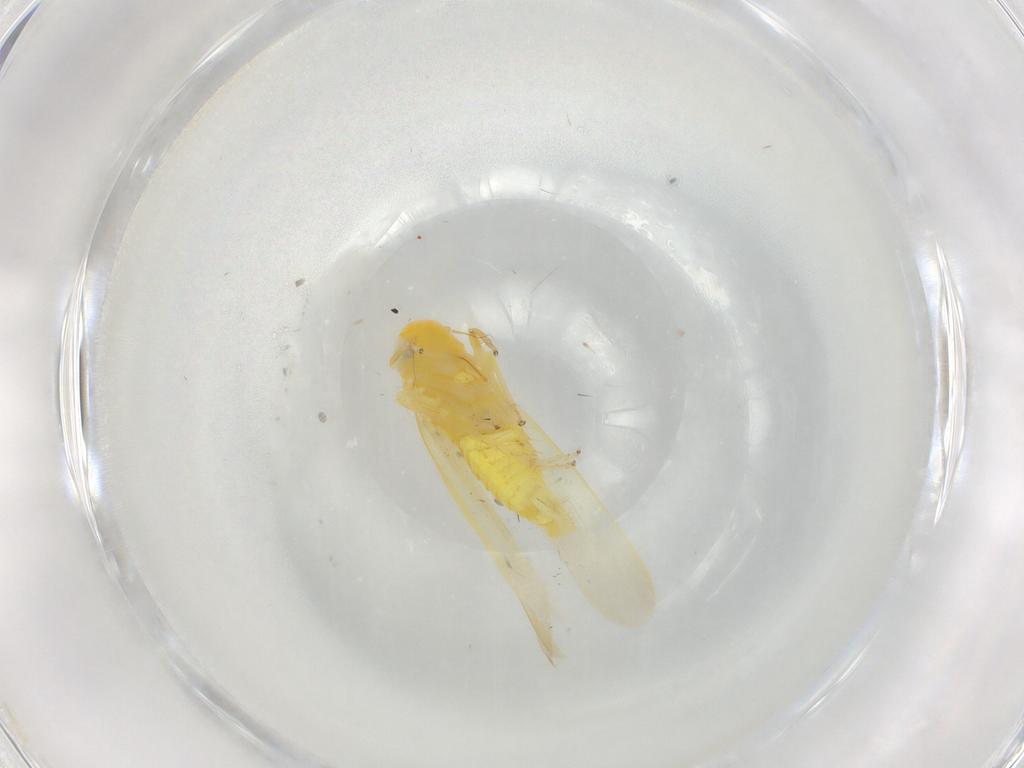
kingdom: Animalia
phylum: Arthropoda
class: Insecta
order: Hemiptera
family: Cicadellidae
